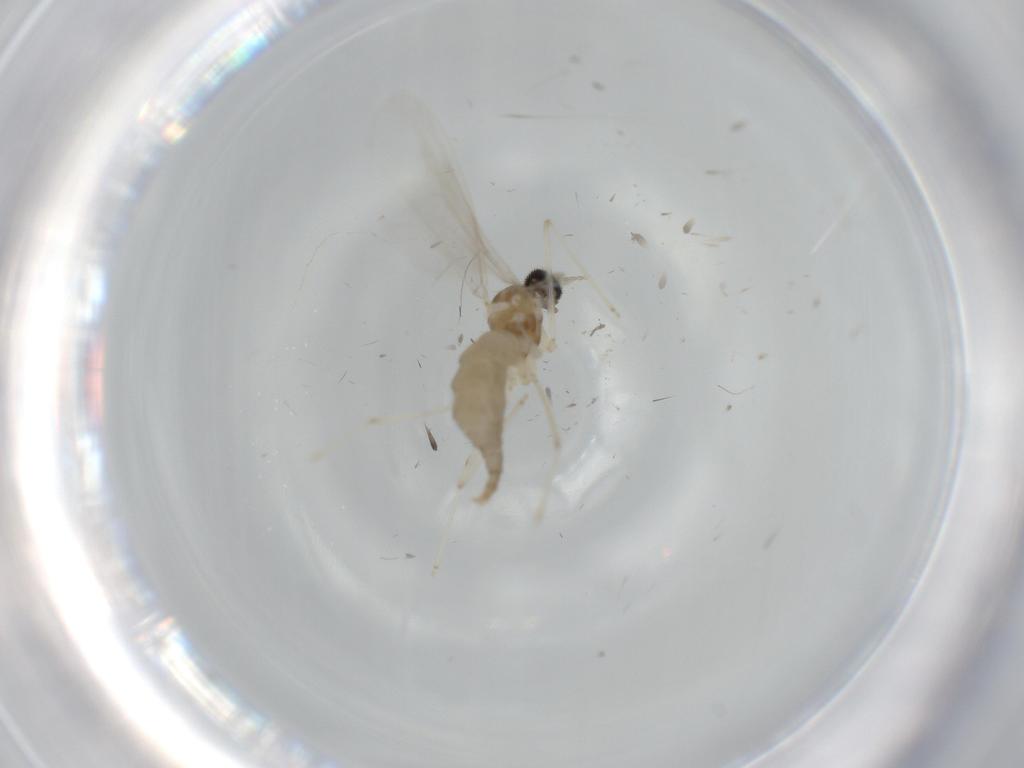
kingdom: Animalia
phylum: Arthropoda
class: Insecta
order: Diptera
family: Cecidomyiidae
